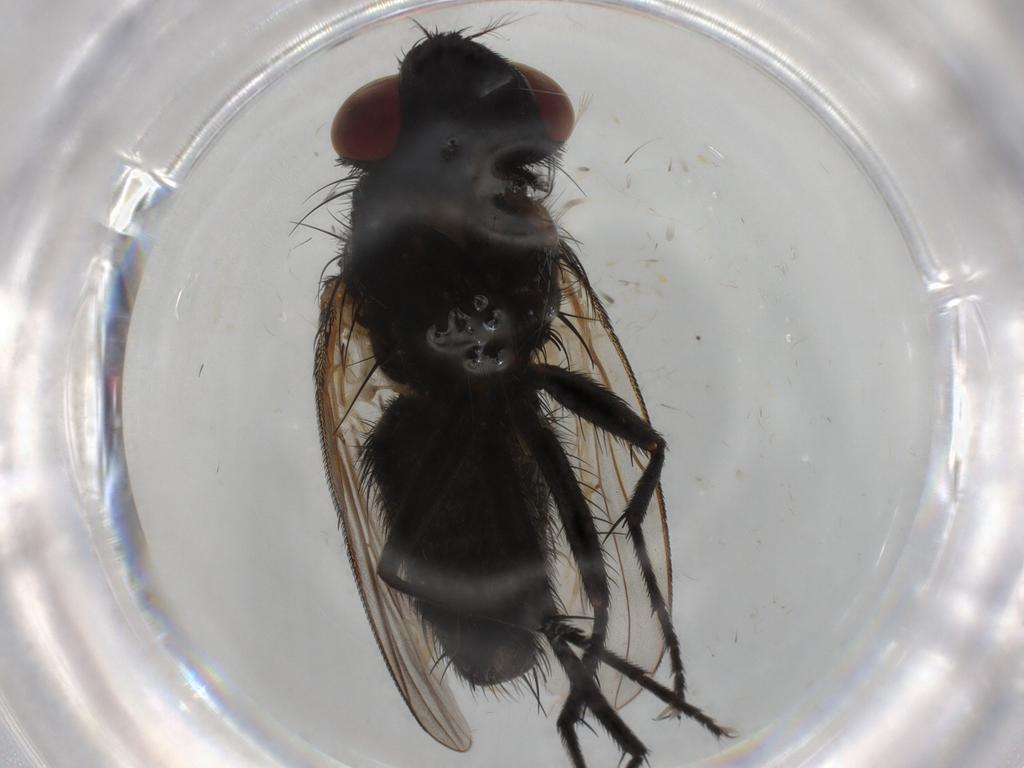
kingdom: Animalia
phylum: Arthropoda
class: Insecta
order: Diptera
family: Muscidae
